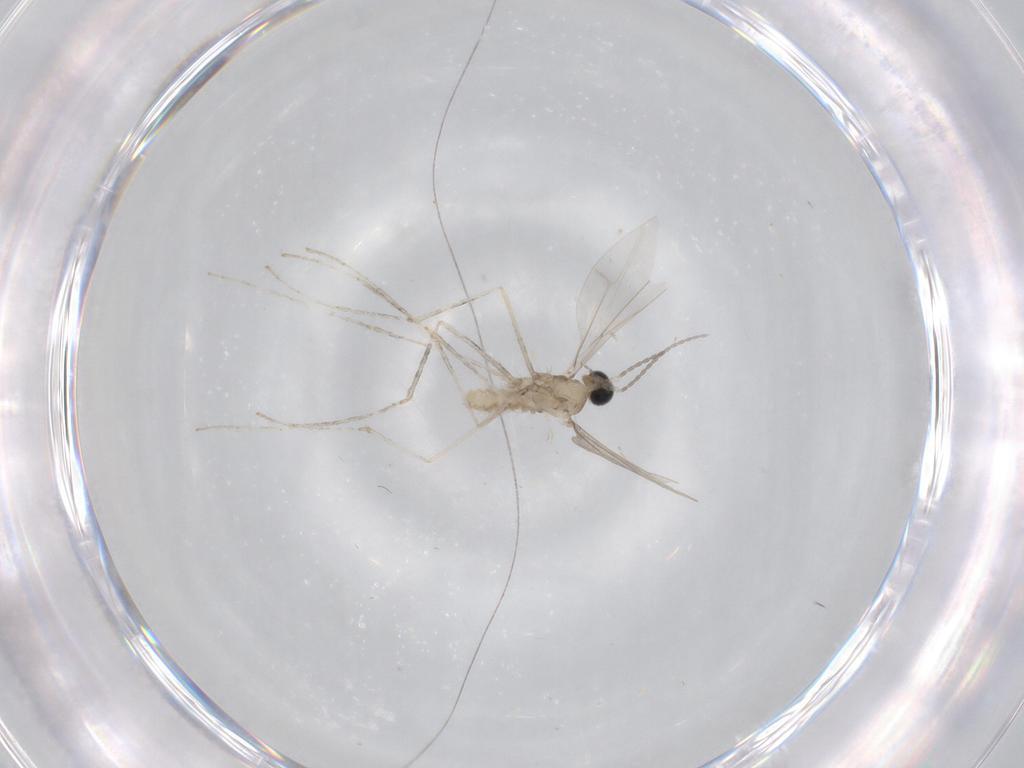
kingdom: Animalia
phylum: Arthropoda
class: Insecta
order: Diptera
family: Cecidomyiidae
